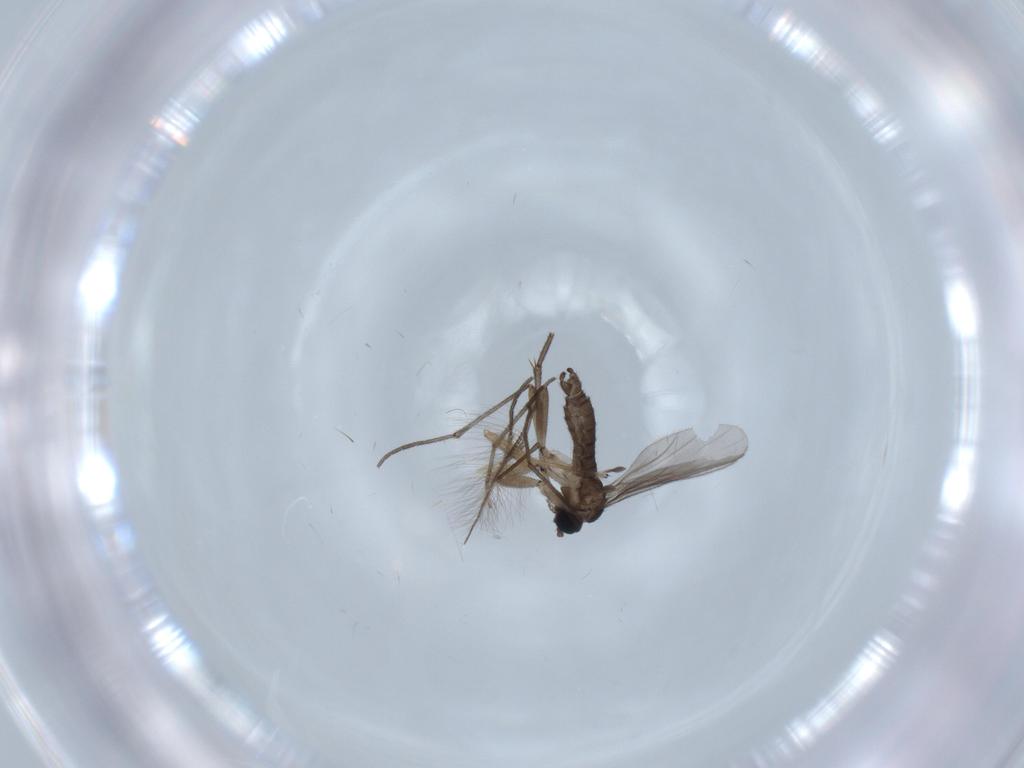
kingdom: Animalia
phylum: Arthropoda
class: Insecta
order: Diptera
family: Sciaridae
